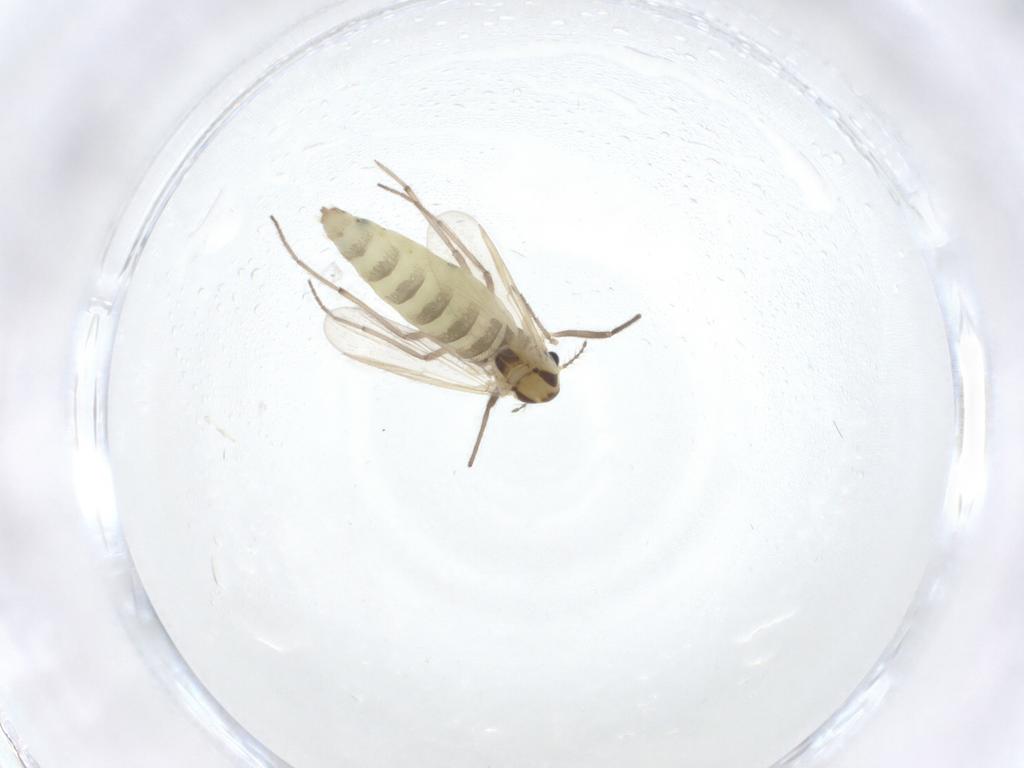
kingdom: Animalia
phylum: Arthropoda
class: Insecta
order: Diptera
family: Chironomidae
